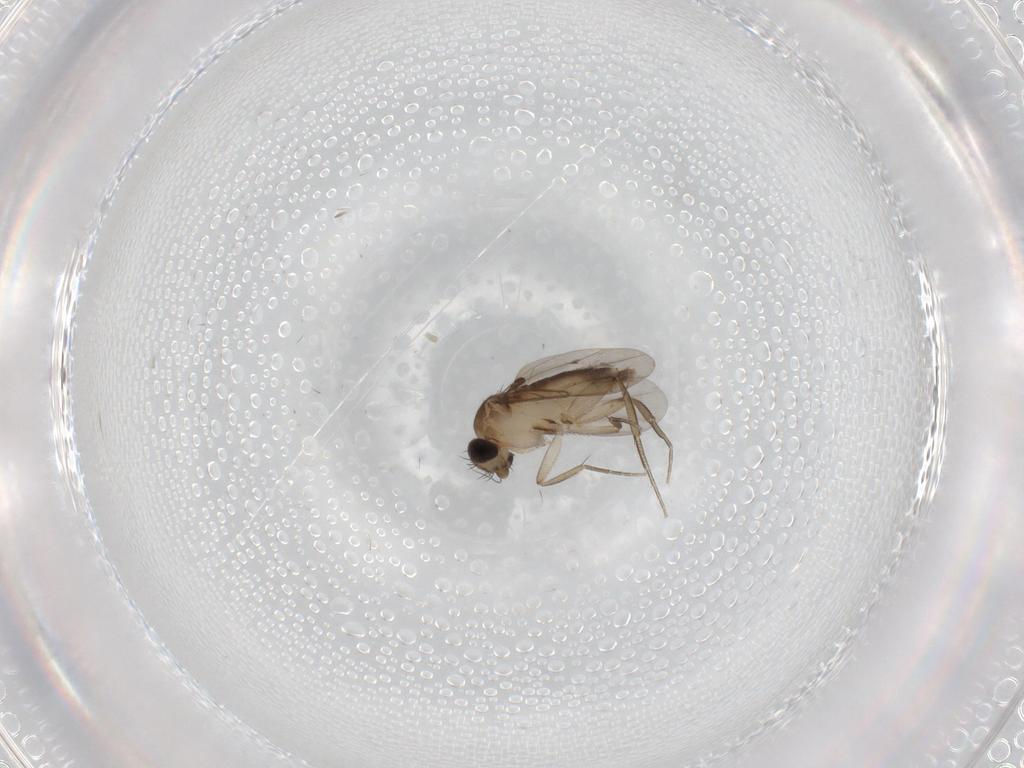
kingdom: Animalia
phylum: Arthropoda
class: Insecta
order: Diptera
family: Phoridae
